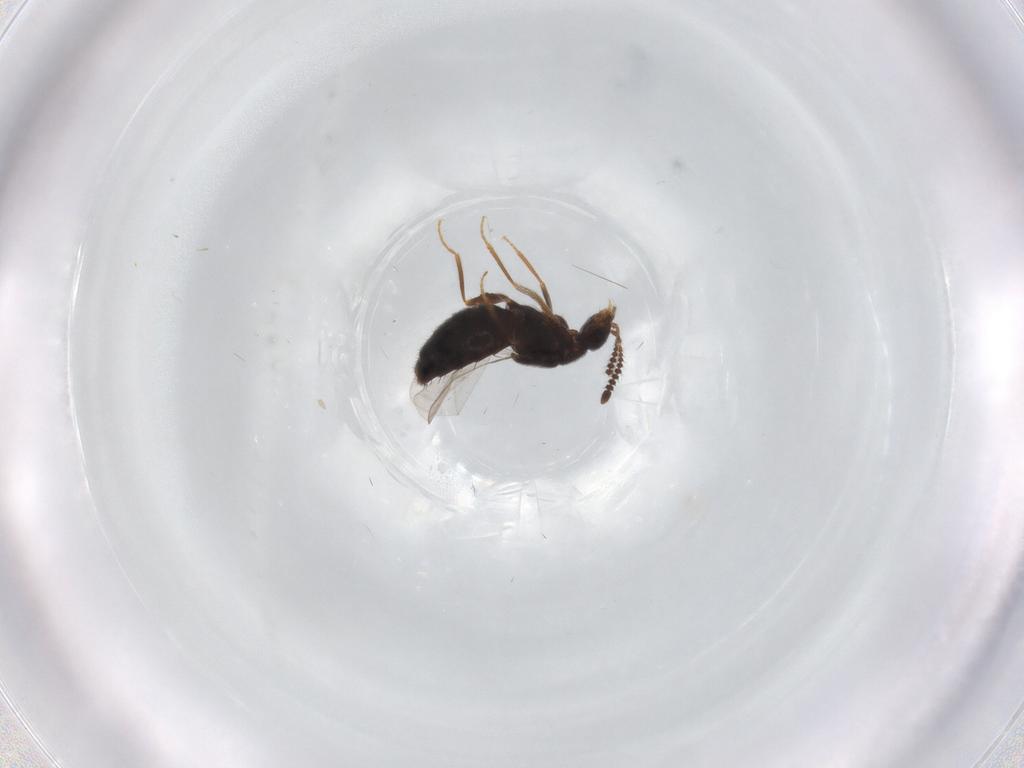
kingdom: Animalia
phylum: Arthropoda
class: Insecta
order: Coleoptera
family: Staphylinidae
